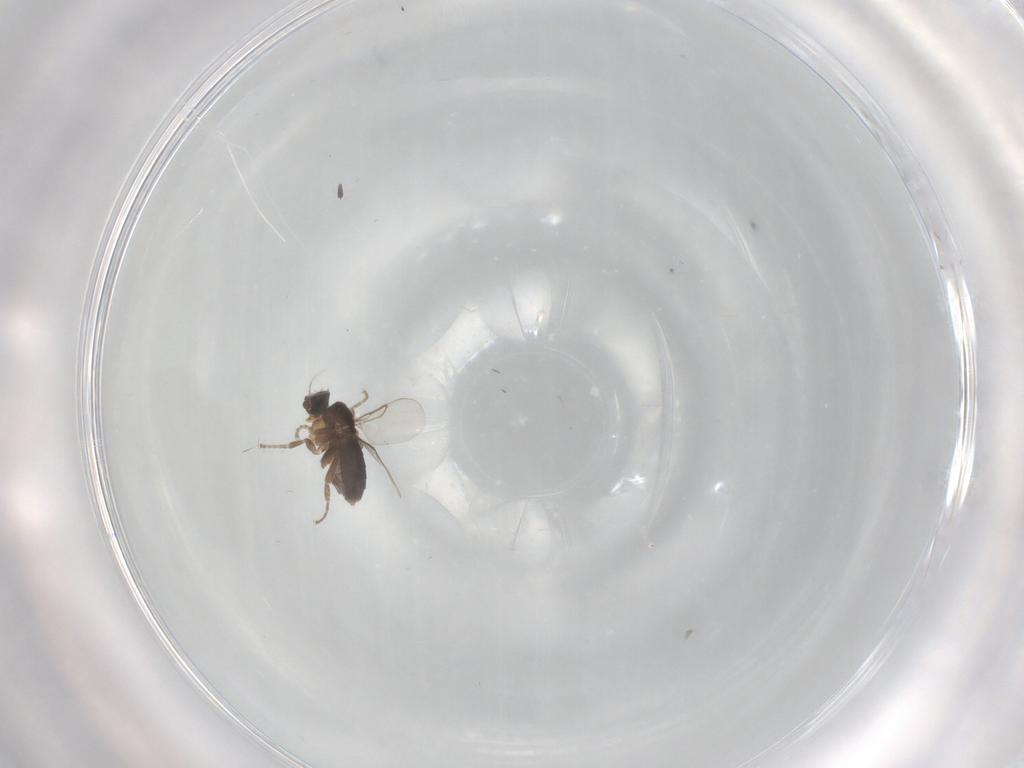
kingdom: Animalia
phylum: Arthropoda
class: Insecta
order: Diptera
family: Phoridae
